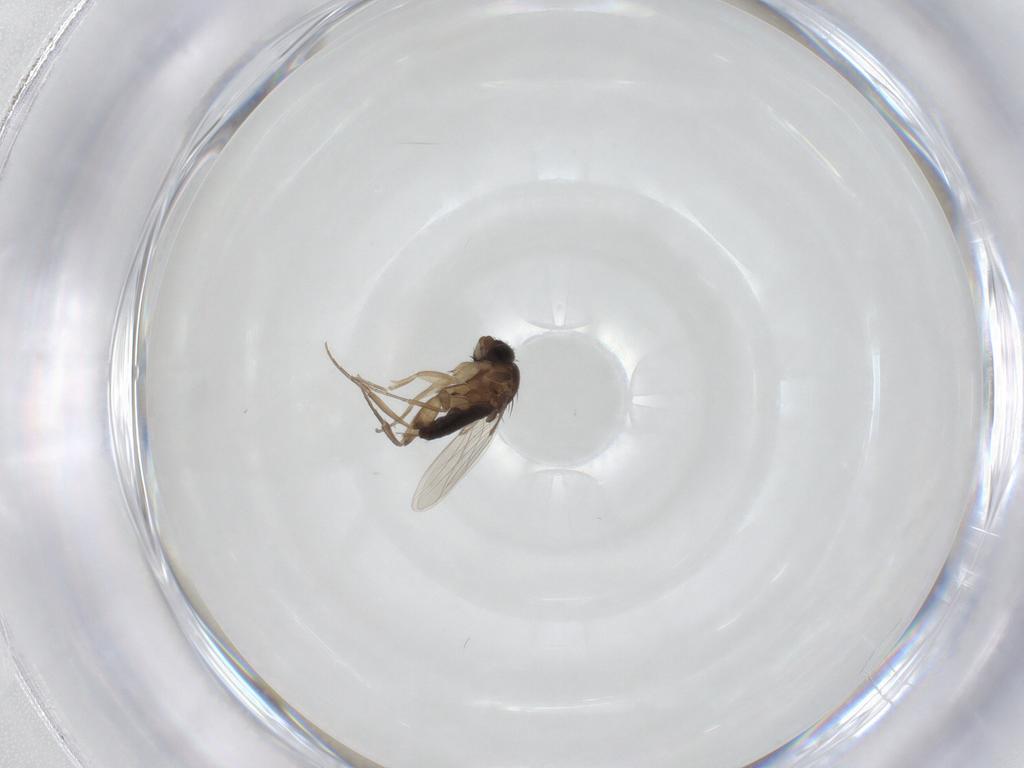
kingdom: Animalia
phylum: Arthropoda
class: Insecta
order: Diptera
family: Phoridae
